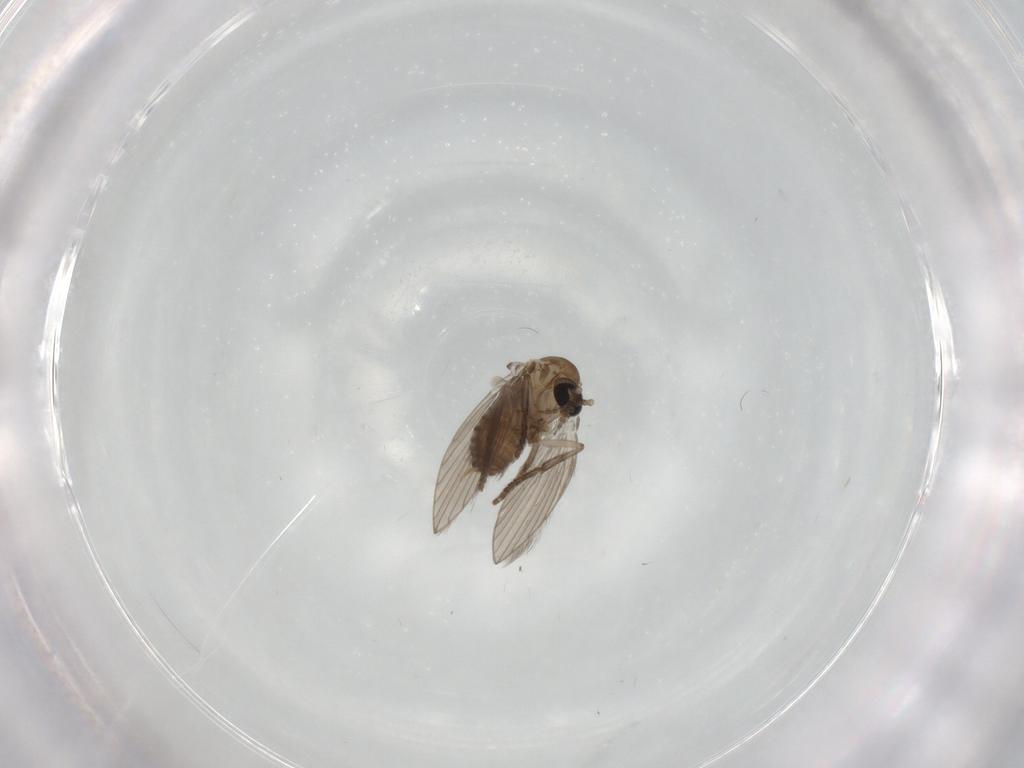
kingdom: Animalia
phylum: Arthropoda
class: Insecta
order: Diptera
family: Psychodidae
